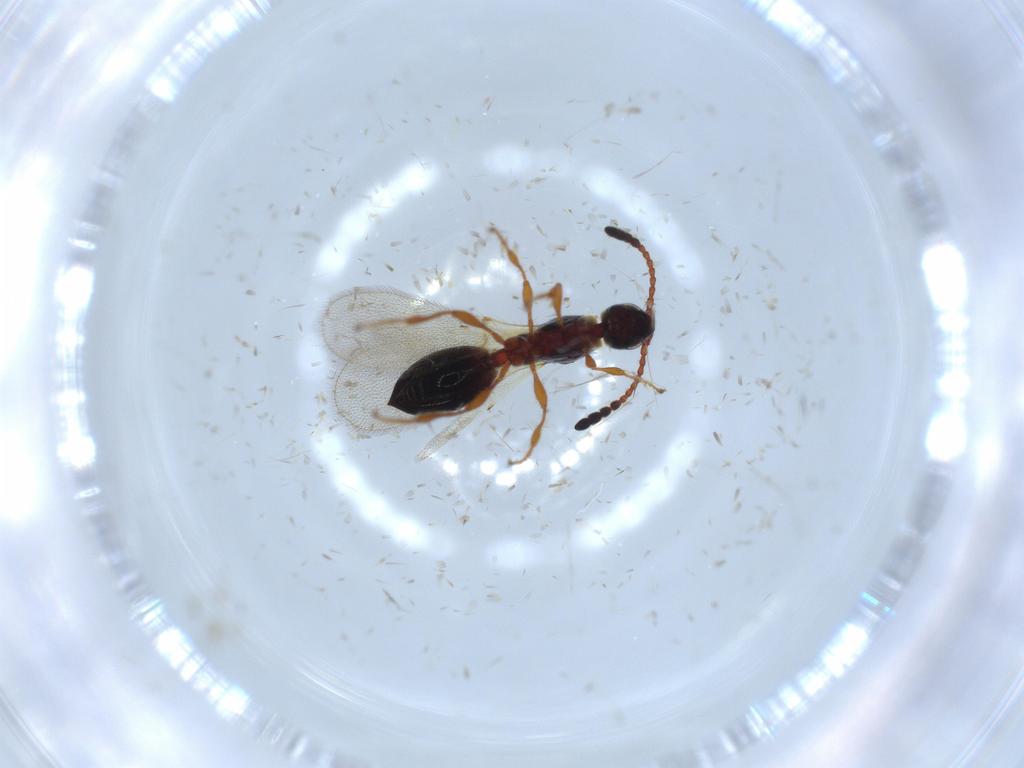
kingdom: Animalia
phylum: Arthropoda
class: Insecta
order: Hymenoptera
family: Diapriidae
